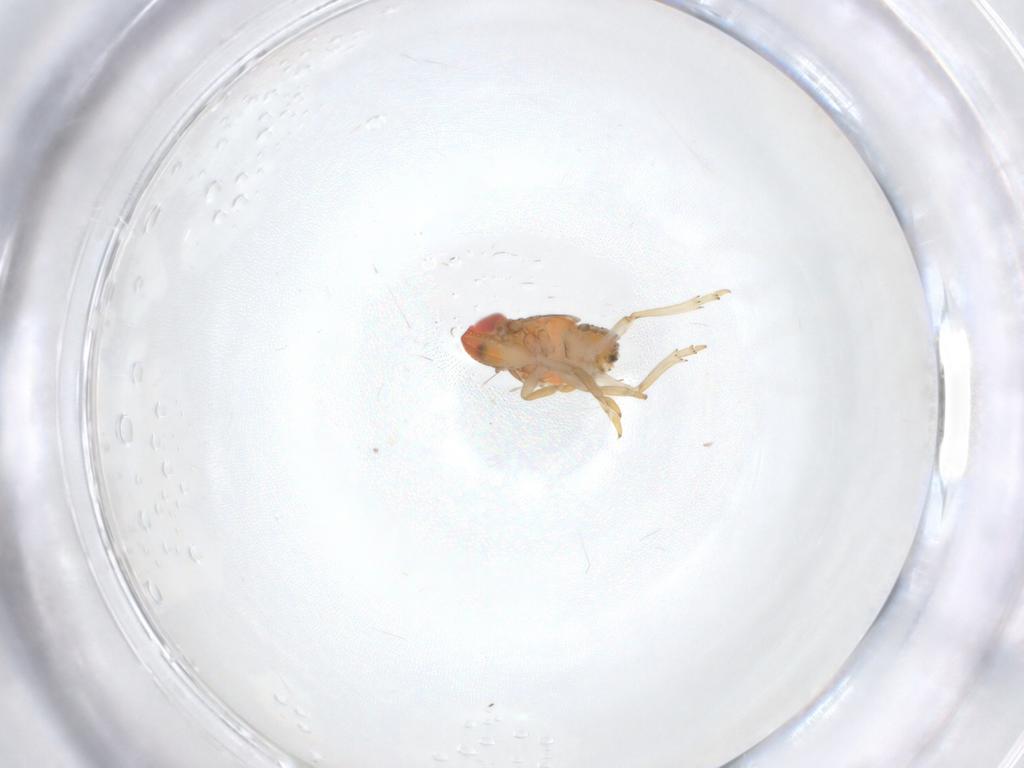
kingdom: Animalia
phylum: Arthropoda
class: Insecta
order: Hemiptera
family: Fulgoroidea_incertae_sedis
